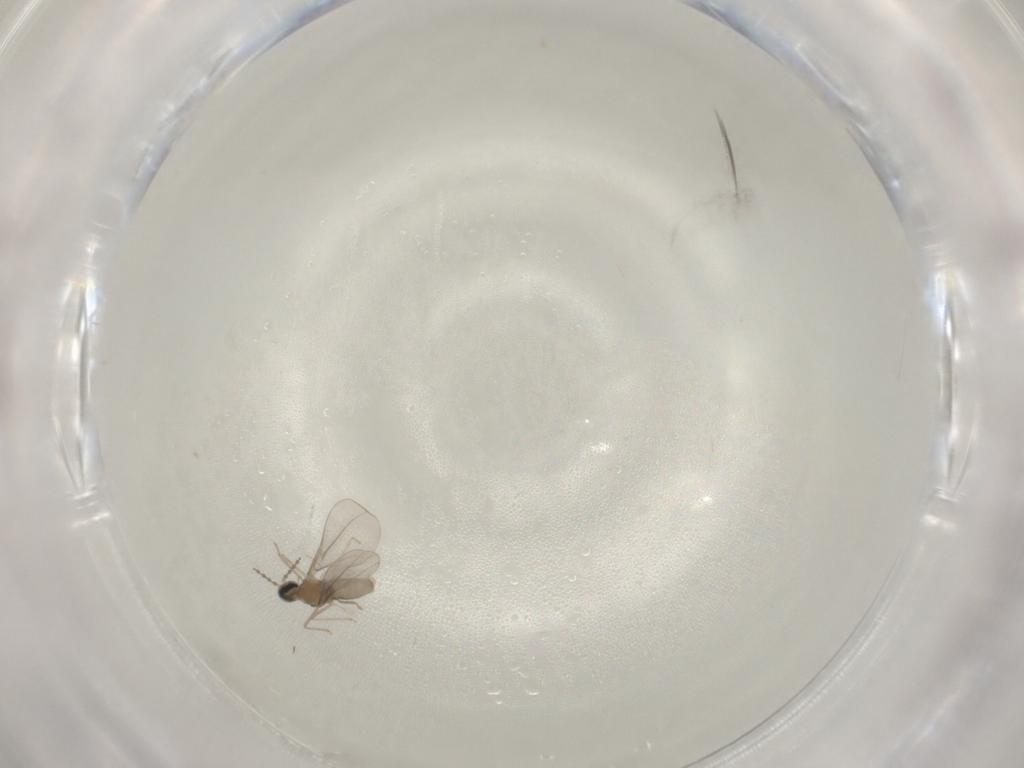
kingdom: Animalia
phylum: Arthropoda
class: Insecta
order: Diptera
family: Cecidomyiidae
